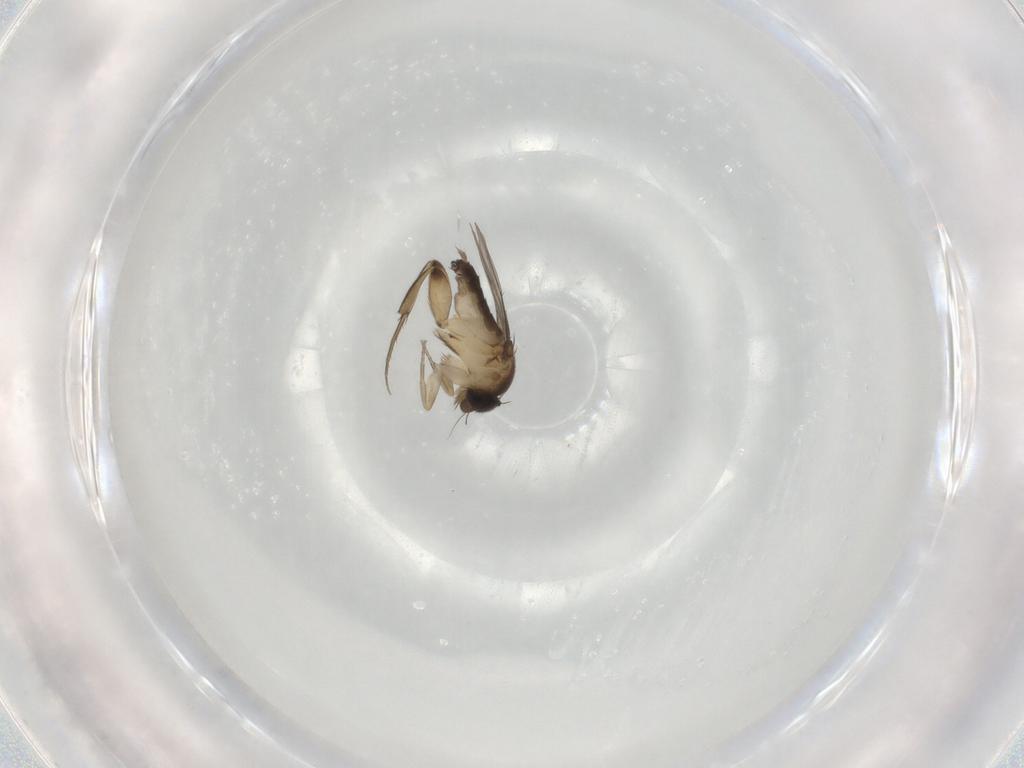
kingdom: Animalia
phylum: Arthropoda
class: Insecta
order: Diptera
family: Phoridae
